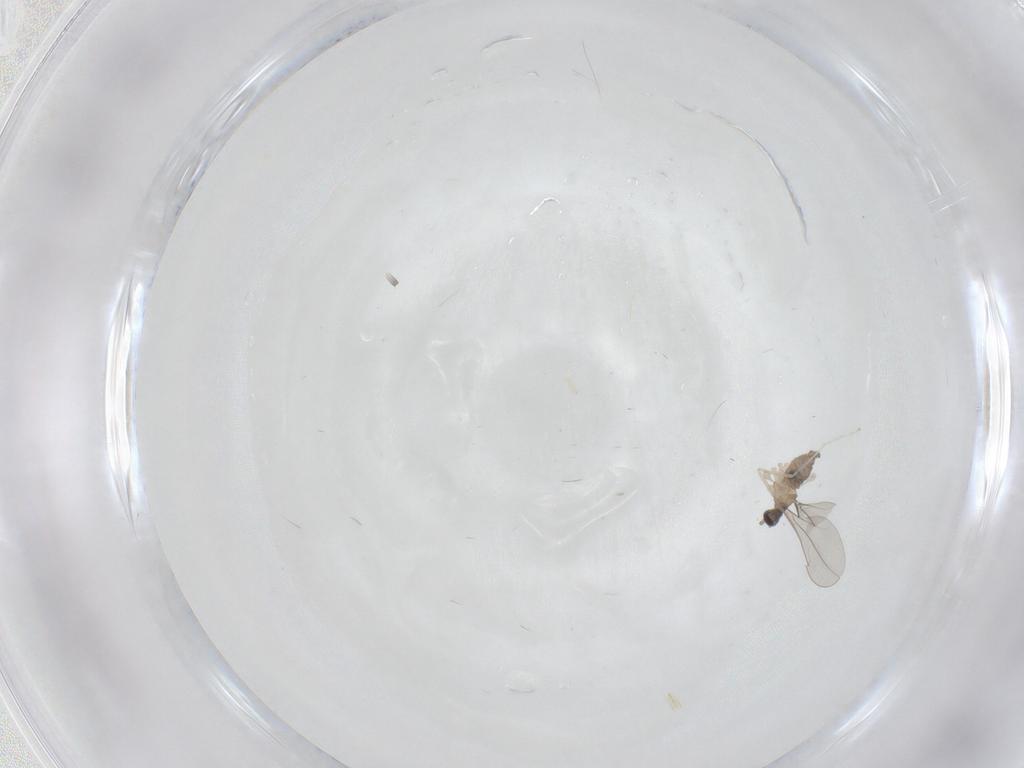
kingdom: Animalia
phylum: Arthropoda
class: Insecta
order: Diptera
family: Cecidomyiidae
